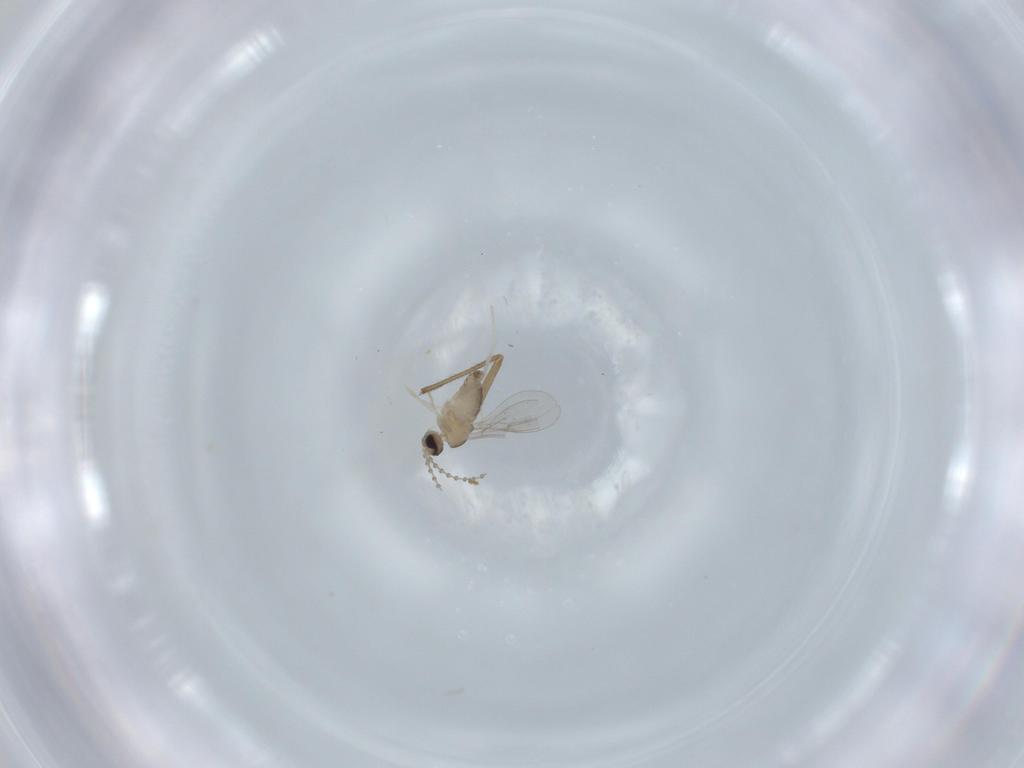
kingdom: Animalia
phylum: Arthropoda
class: Insecta
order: Diptera
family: Cecidomyiidae
